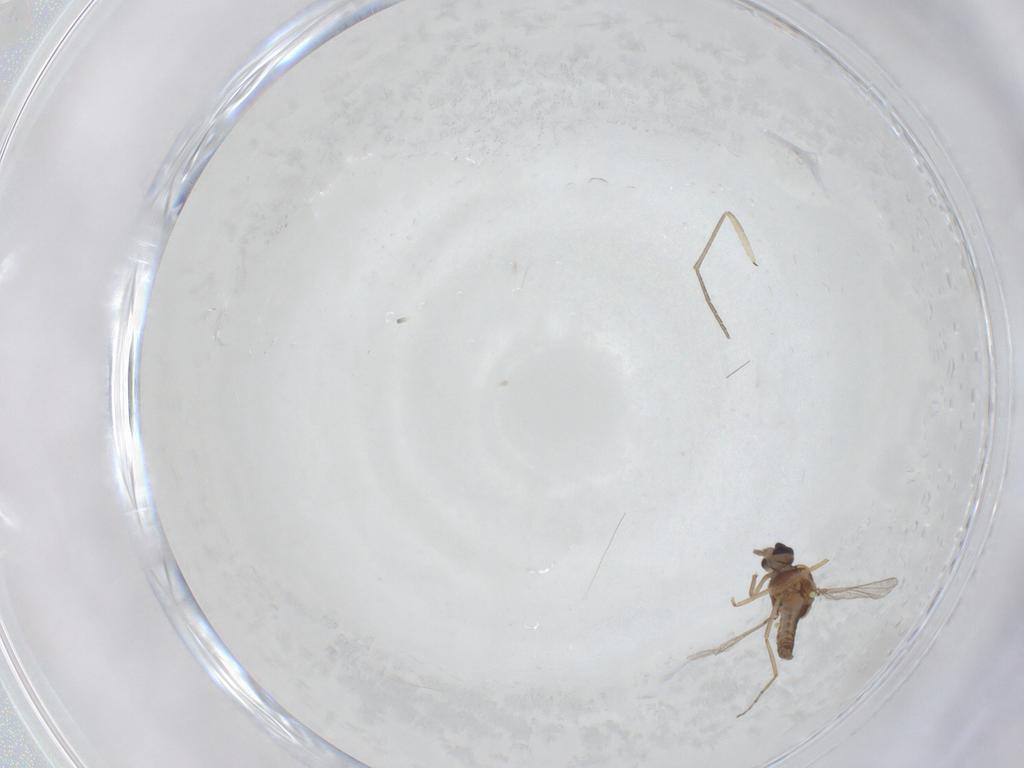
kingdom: Animalia
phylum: Arthropoda
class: Insecta
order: Diptera
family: Sciaridae
